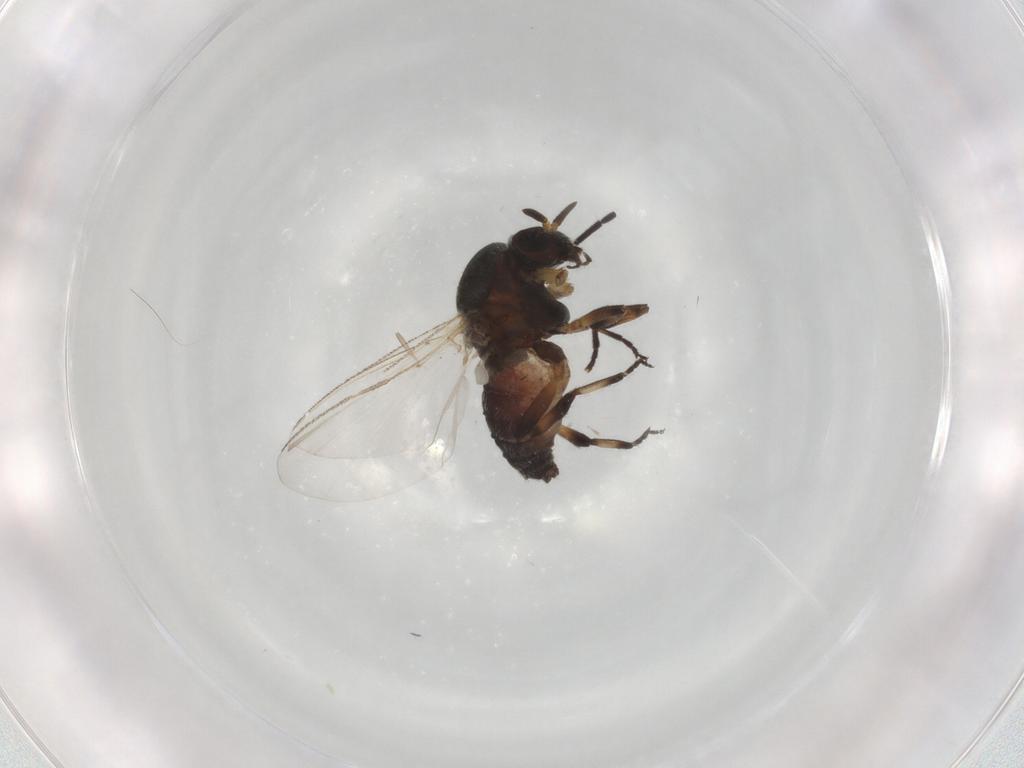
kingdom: Animalia
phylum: Arthropoda
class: Insecta
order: Diptera
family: Cecidomyiidae
